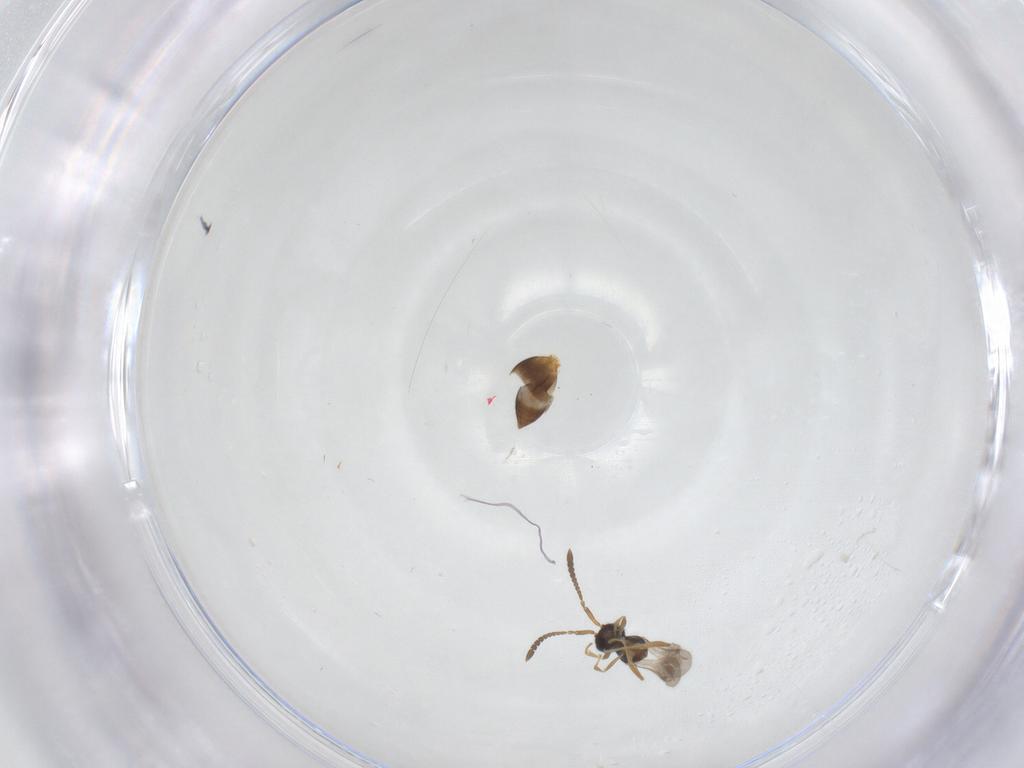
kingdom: Animalia
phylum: Arthropoda
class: Insecta
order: Hymenoptera
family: Megaspilidae
